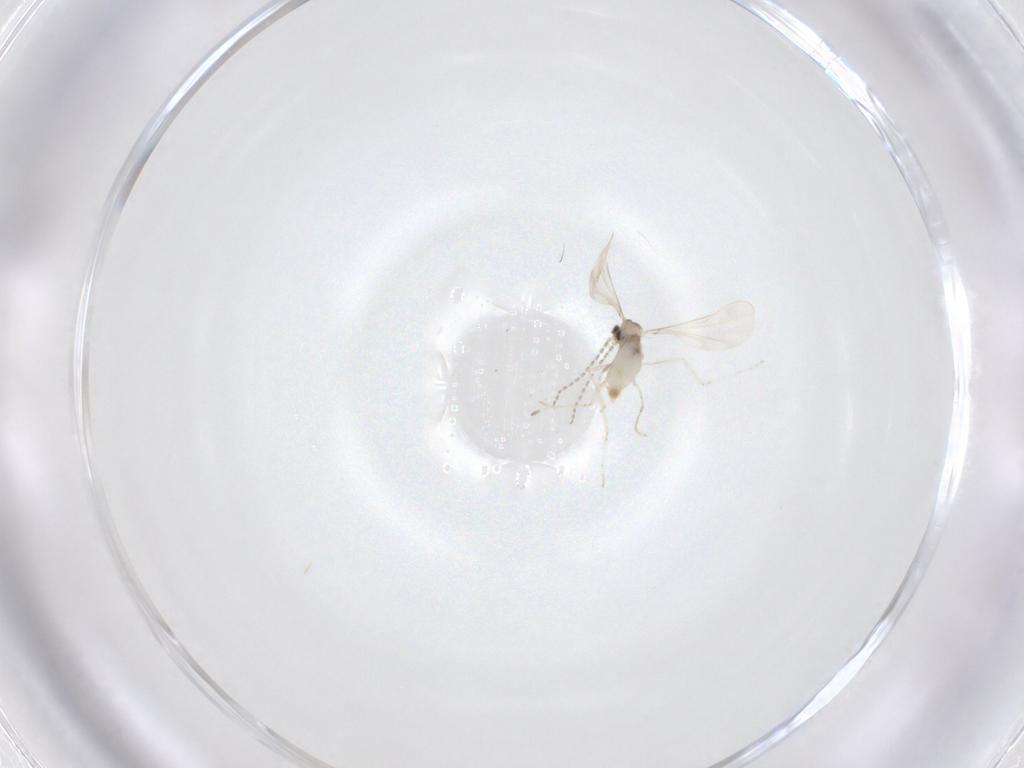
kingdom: Animalia
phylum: Arthropoda
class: Insecta
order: Diptera
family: Cecidomyiidae
